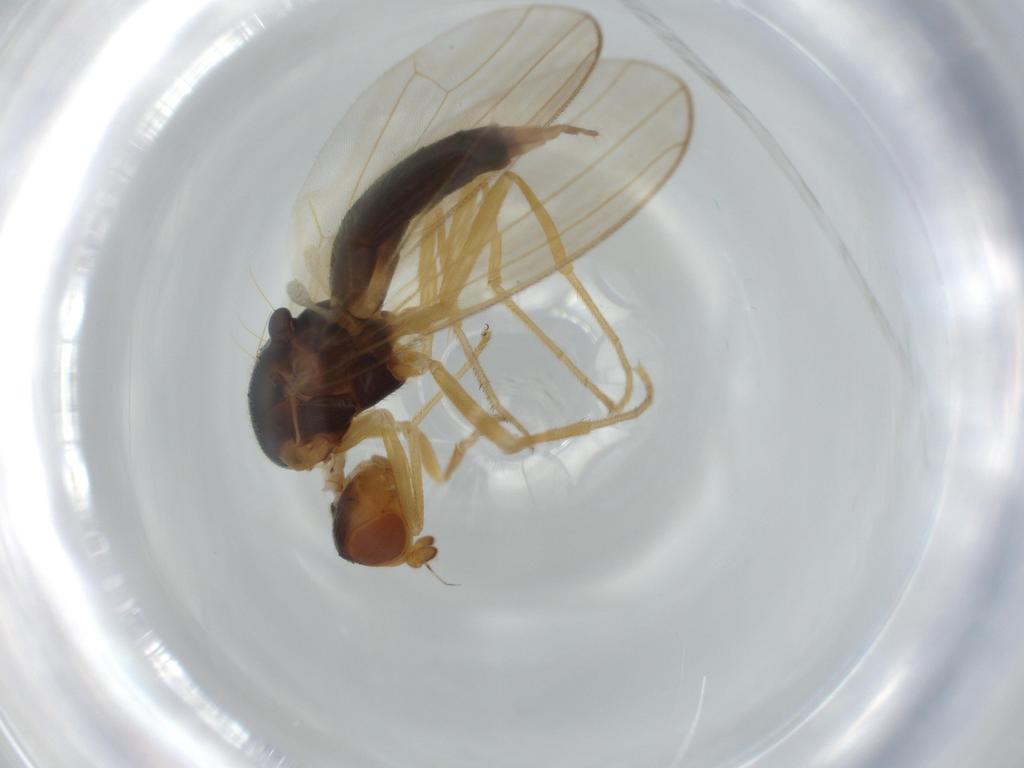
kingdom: Animalia
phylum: Arthropoda
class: Insecta
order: Diptera
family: Psilidae
